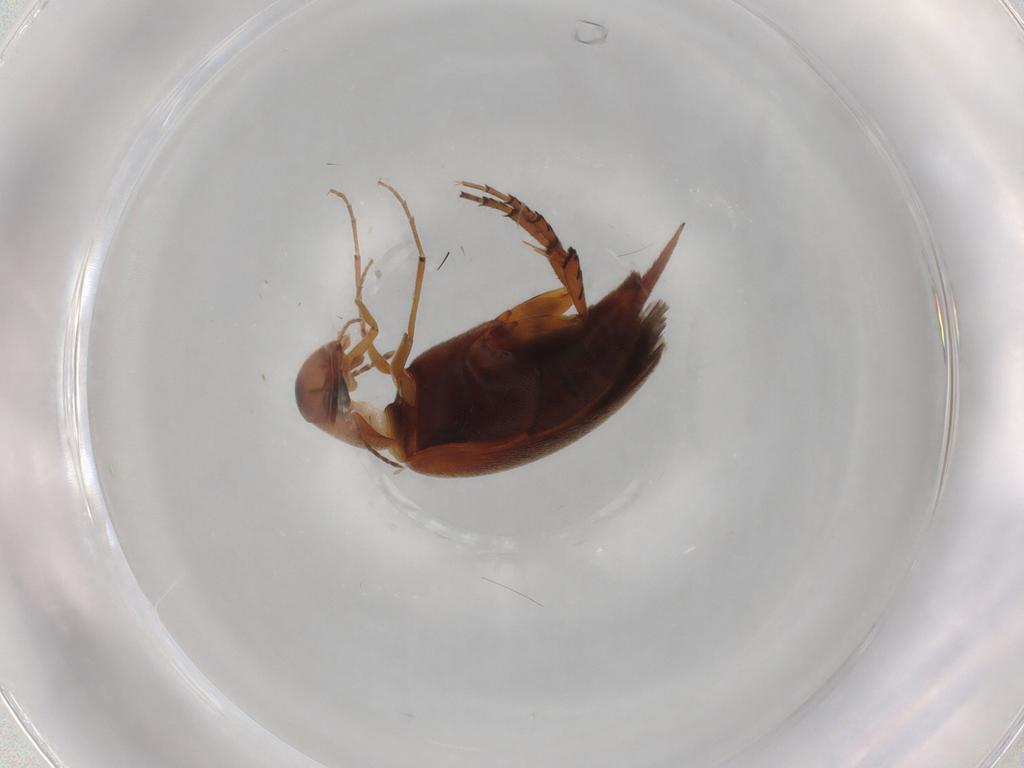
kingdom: Animalia
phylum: Arthropoda
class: Insecta
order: Coleoptera
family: Mordellidae
